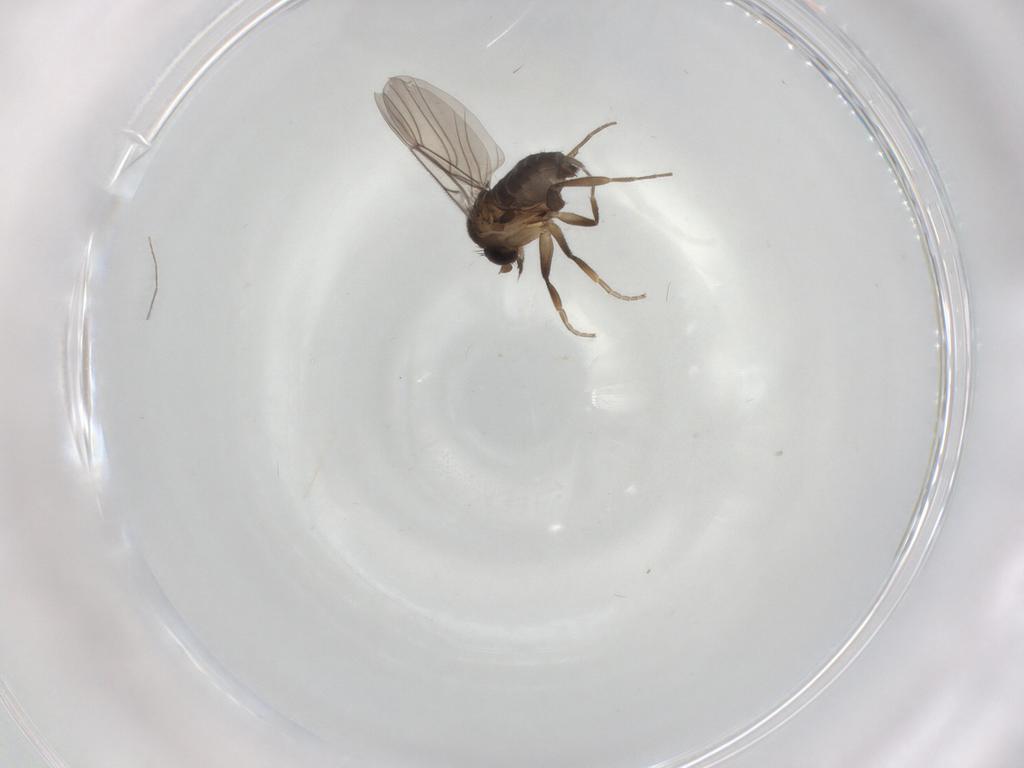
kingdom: Animalia
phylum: Arthropoda
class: Insecta
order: Diptera
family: Phoridae
